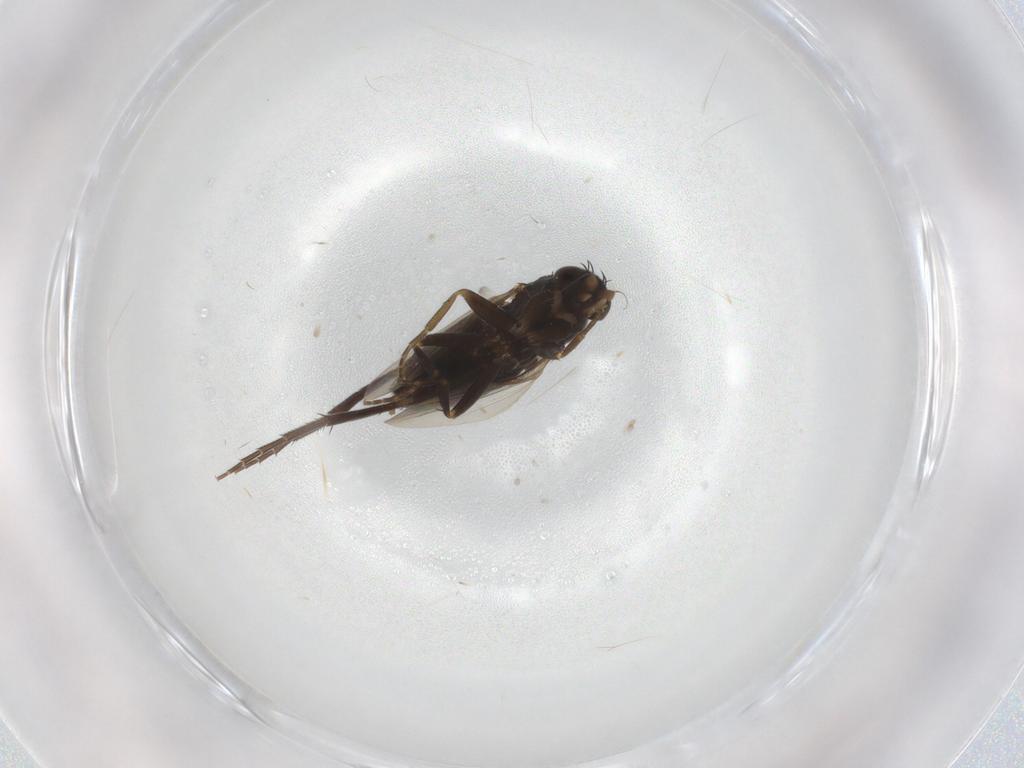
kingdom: Animalia
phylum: Arthropoda
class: Insecta
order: Diptera
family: Phoridae
